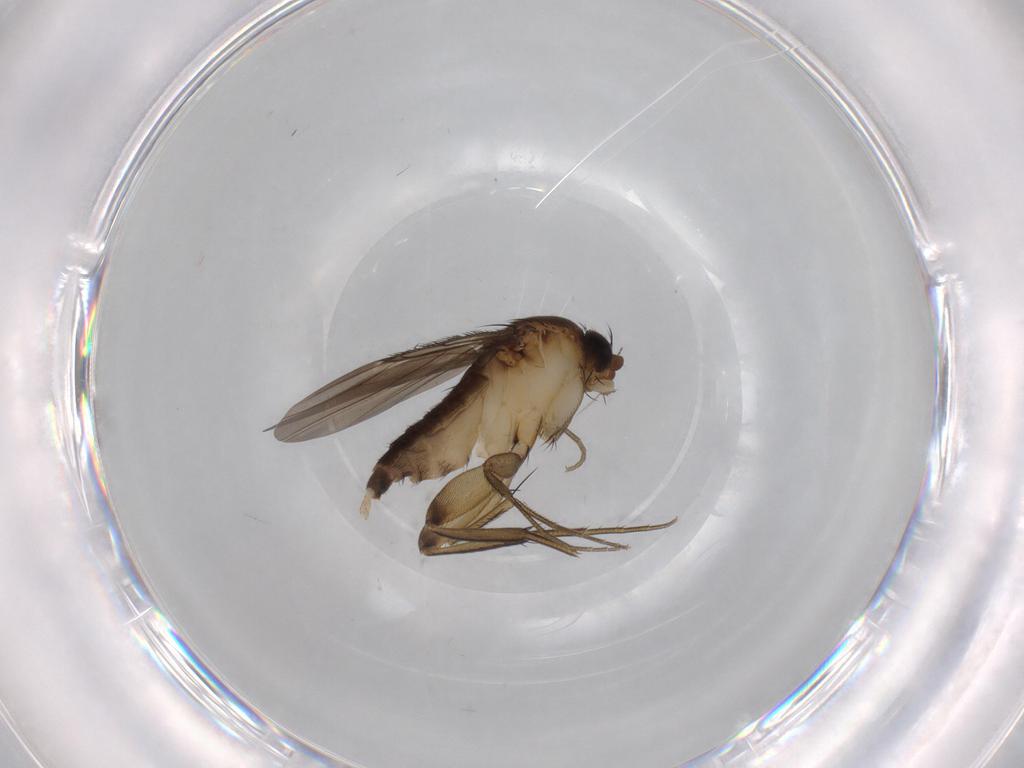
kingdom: Animalia
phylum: Arthropoda
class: Insecta
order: Diptera
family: Phoridae
